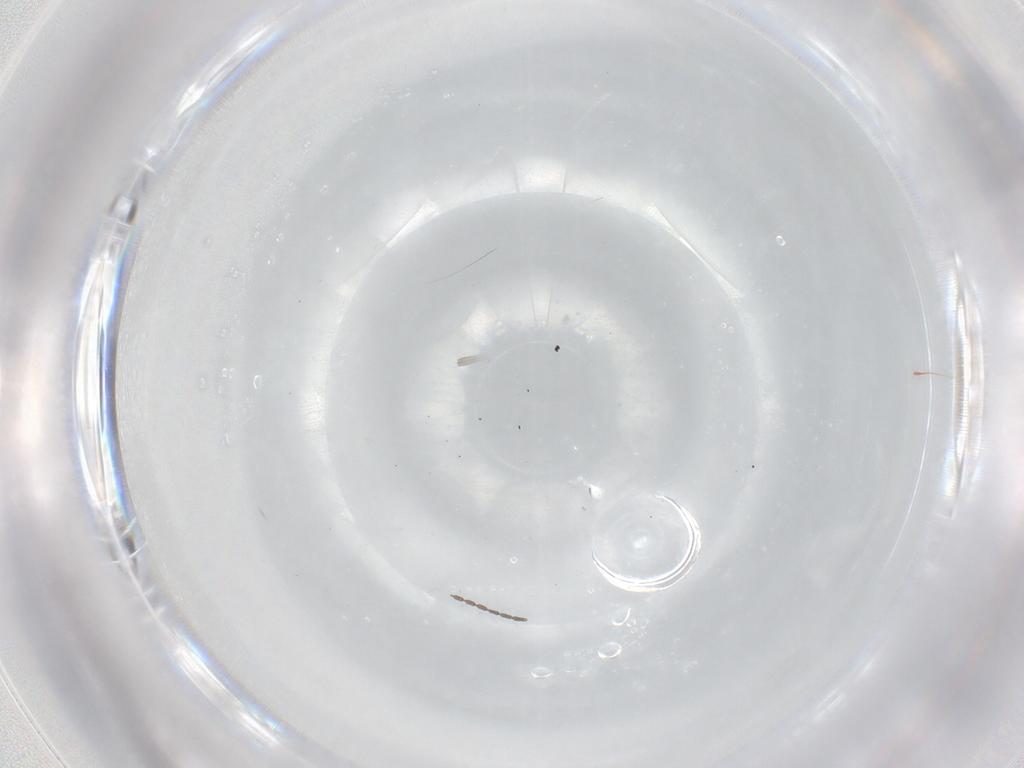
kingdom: Animalia
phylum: Arthropoda
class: Insecta
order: Diptera
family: Cecidomyiidae
